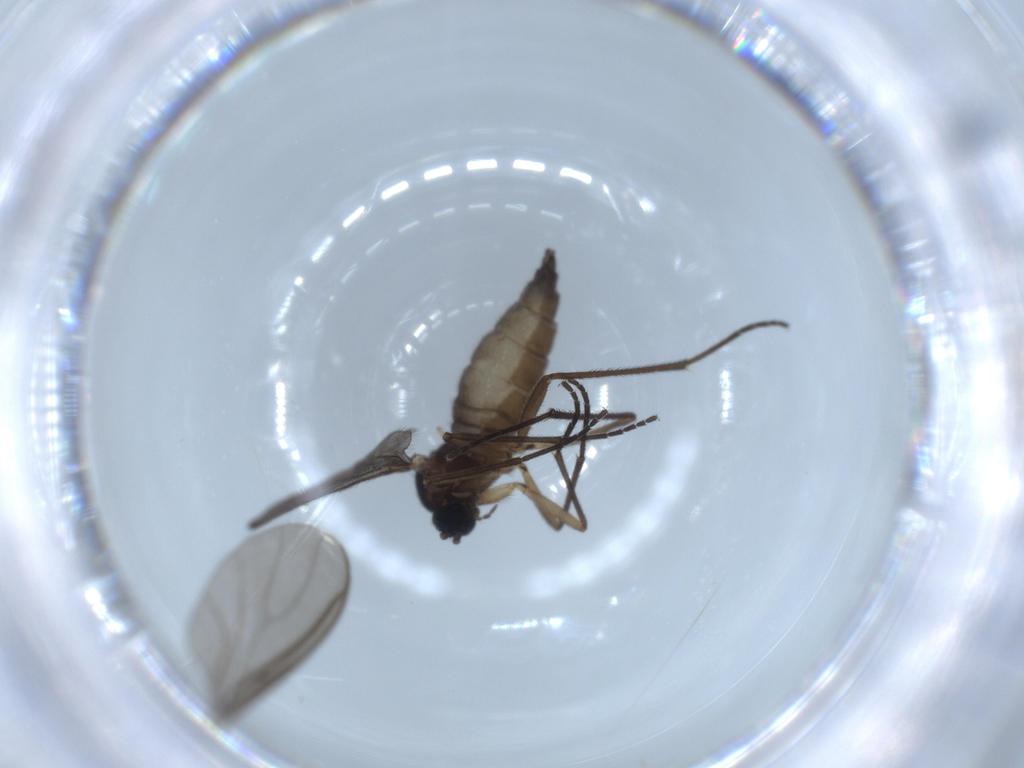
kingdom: Animalia
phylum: Arthropoda
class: Insecta
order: Diptera
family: Sciaridae
